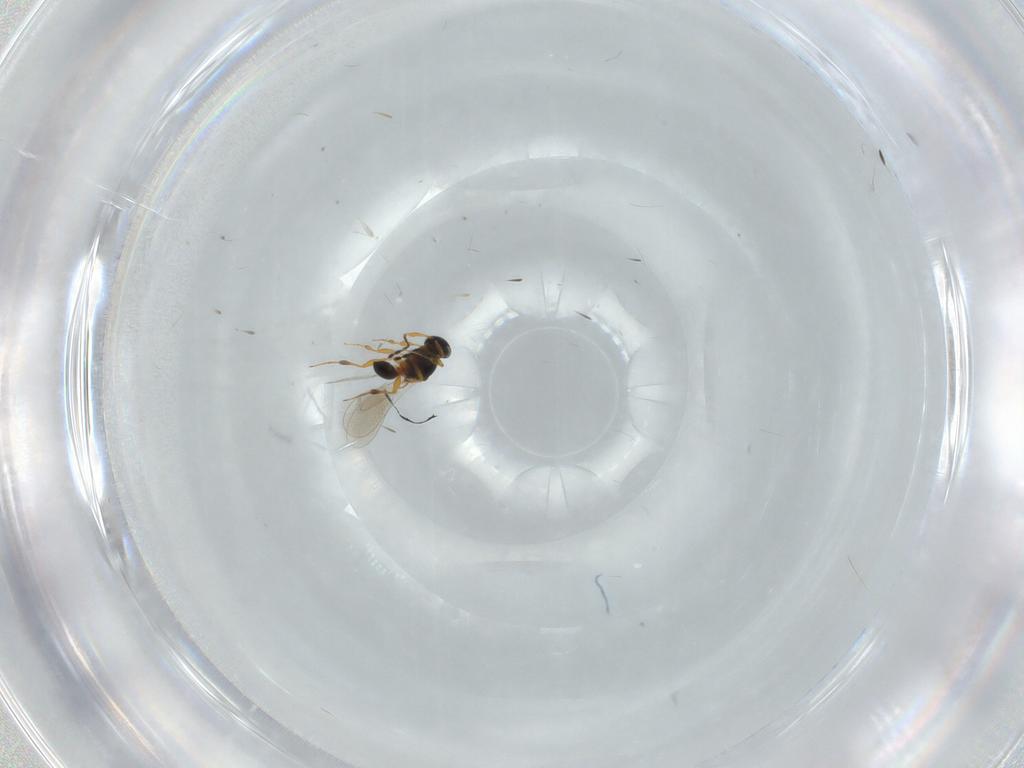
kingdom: Animalia
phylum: Arthropoda
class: Insecta
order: Hymenoptera
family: Platygastridae
